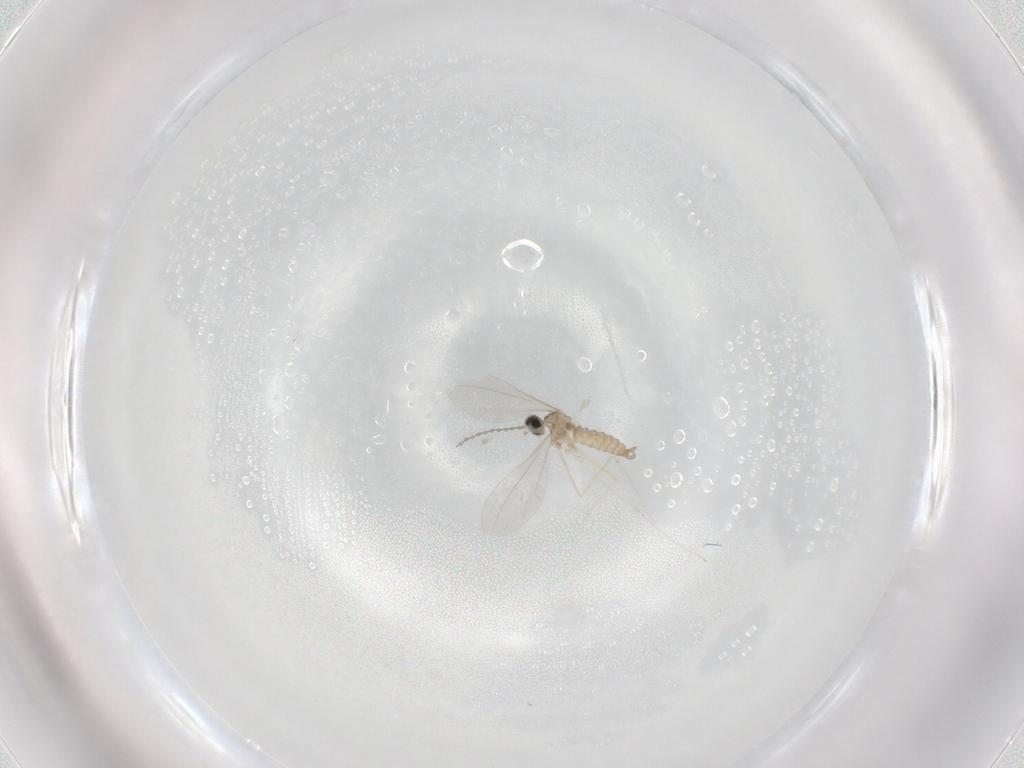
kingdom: Animalia
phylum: Arthropoda
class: Insecta
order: Diptera
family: Cecidomyiidae
